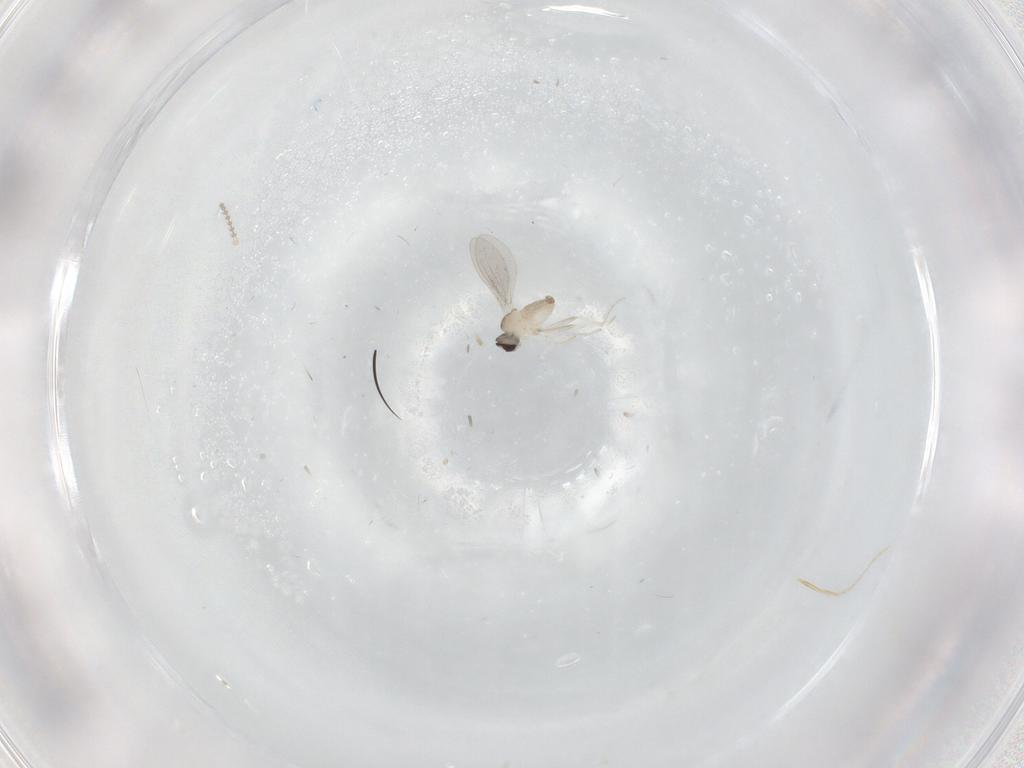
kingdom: Animalia
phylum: Arthropoda
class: Insecta
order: Diptera
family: Cecidomyiidae
